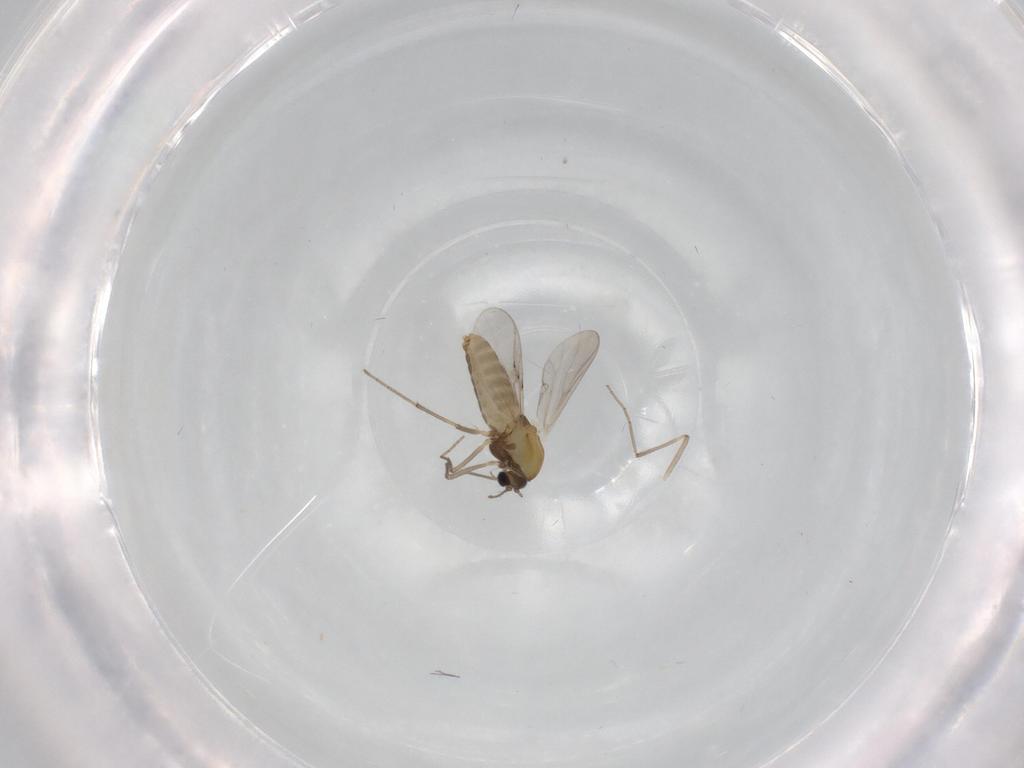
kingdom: Animalia
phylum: Arthropoda
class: Insecta
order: Diptera
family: Chironomidae
